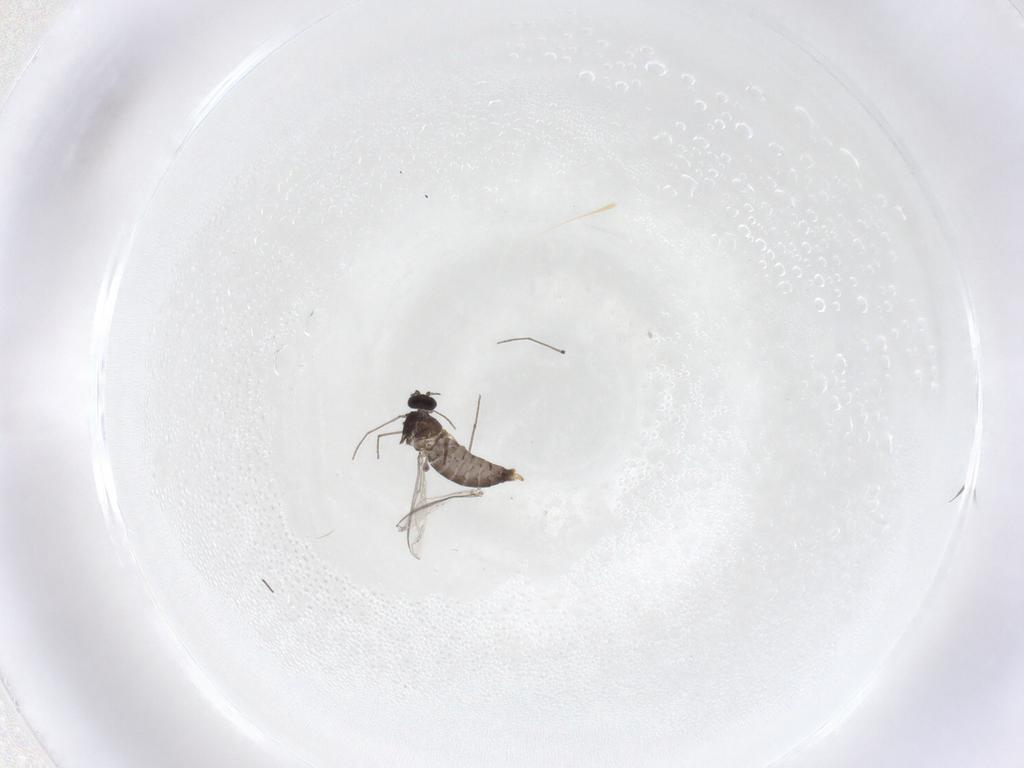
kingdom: Animalia
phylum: Arthropoda
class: Insecta
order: Diptera
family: Chironomidae
